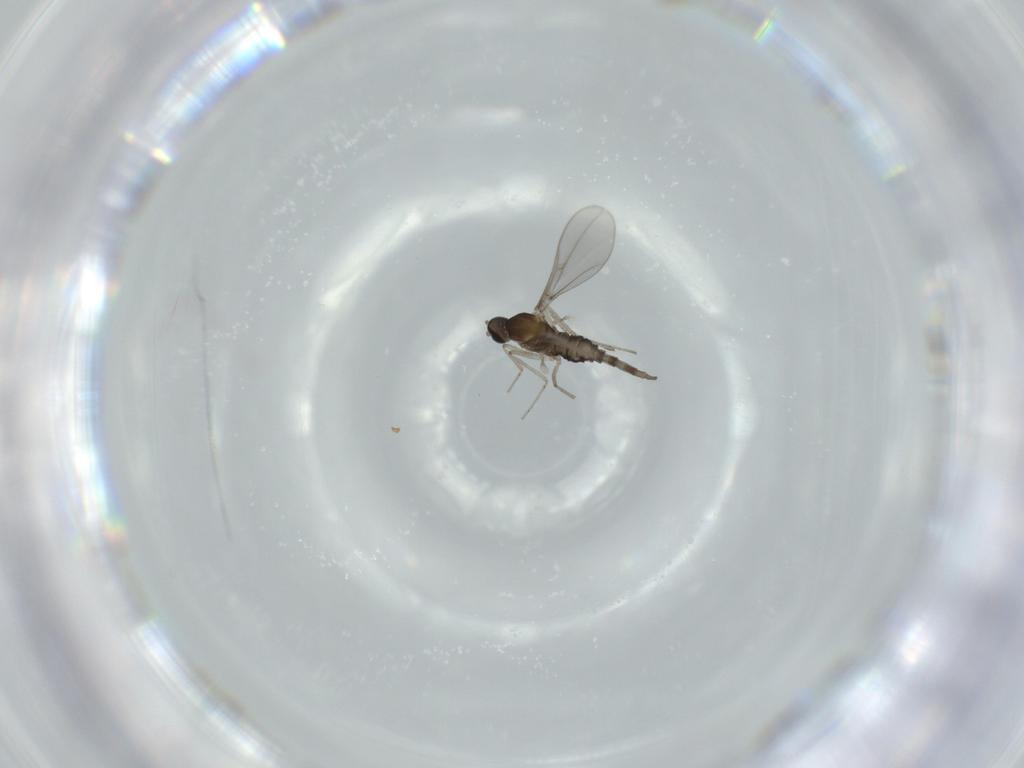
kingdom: Animalia
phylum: Arthropoda
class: Insecta
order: Diptera
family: Cecidomyiidae
